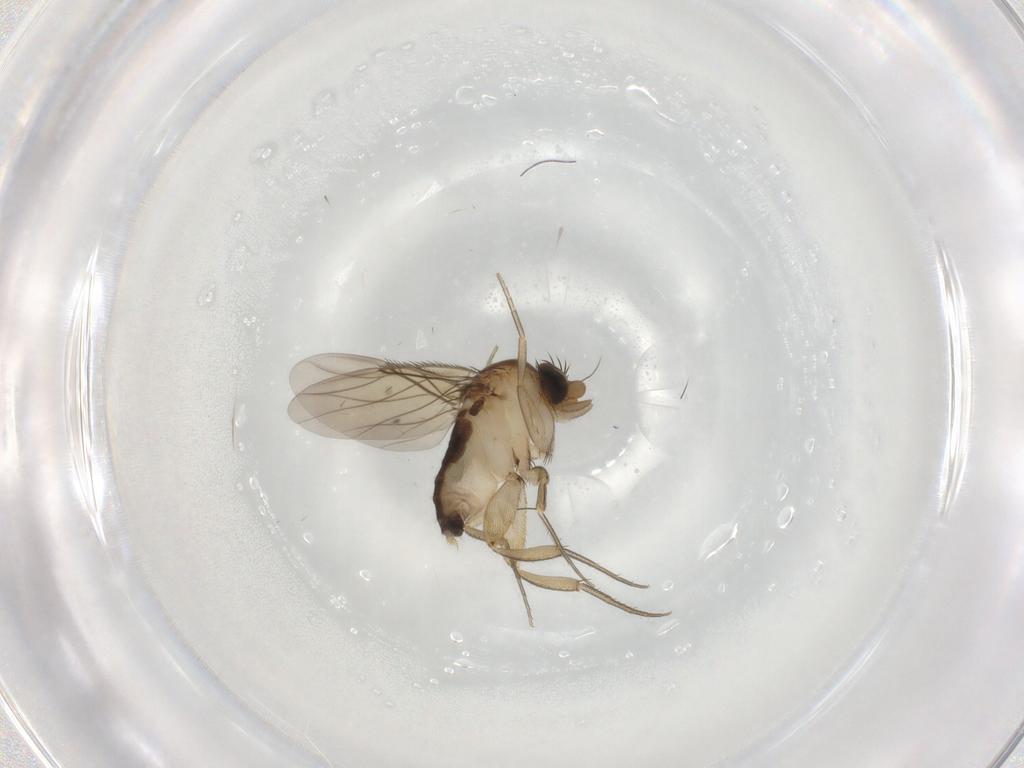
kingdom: Animalia
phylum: Arthropoda
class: Insecta
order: Diptera
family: Phoridae
